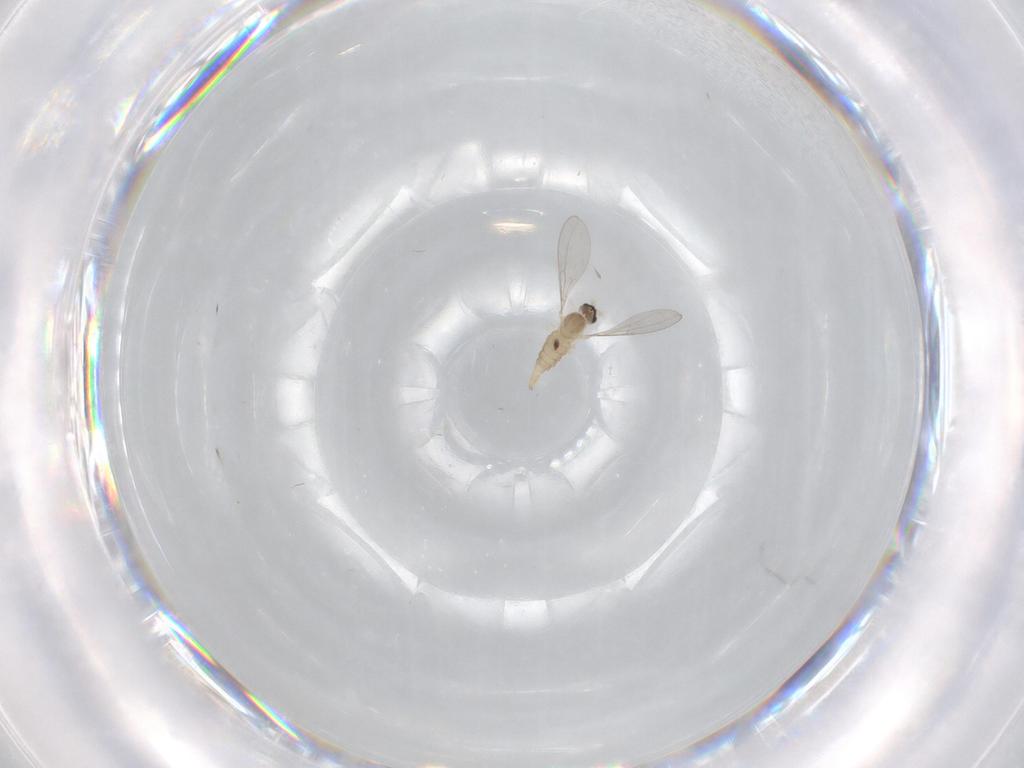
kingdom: Animalia
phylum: Arthropoda
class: Insecta
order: Diptera
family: Cecidomyiidae
